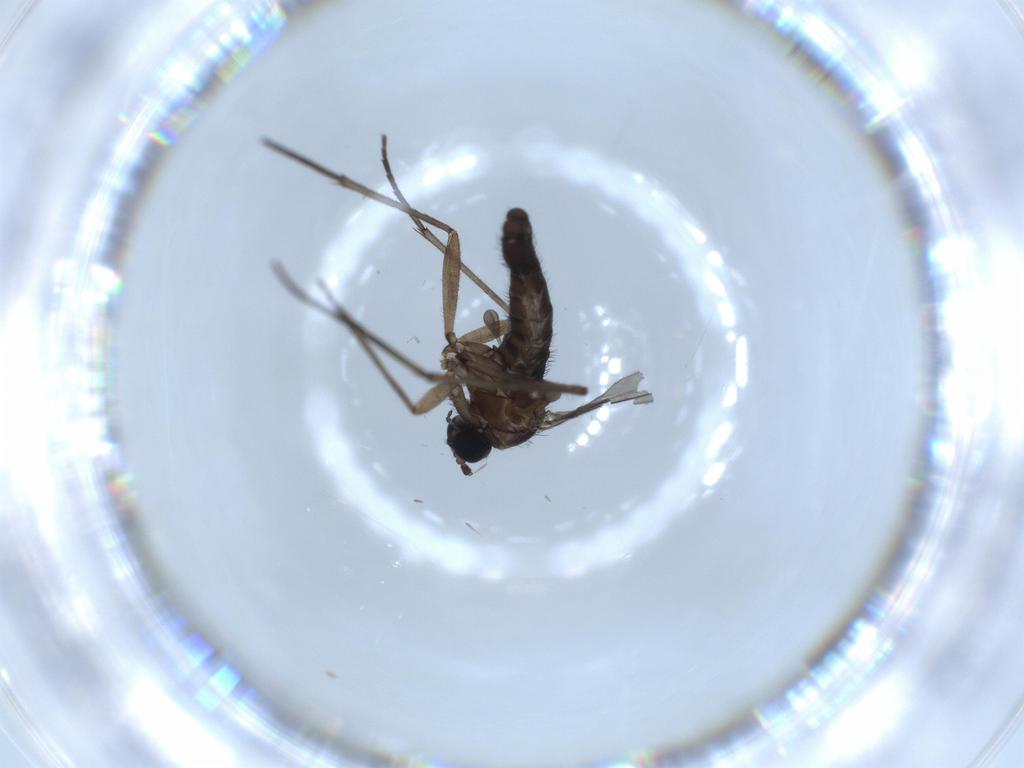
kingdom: Animalia
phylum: Arthropoda
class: Insecta
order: Diptera
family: Sciaridae
